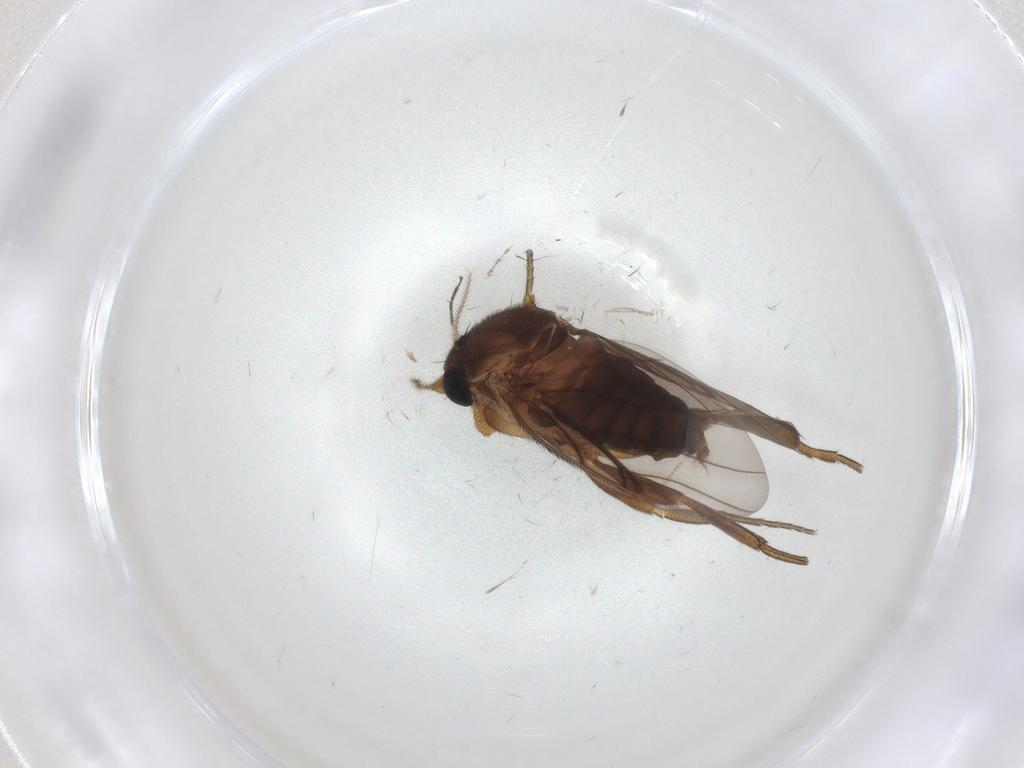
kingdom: Animalia
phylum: Arthropoda
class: Insecta
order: Diptera
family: Phoridae
